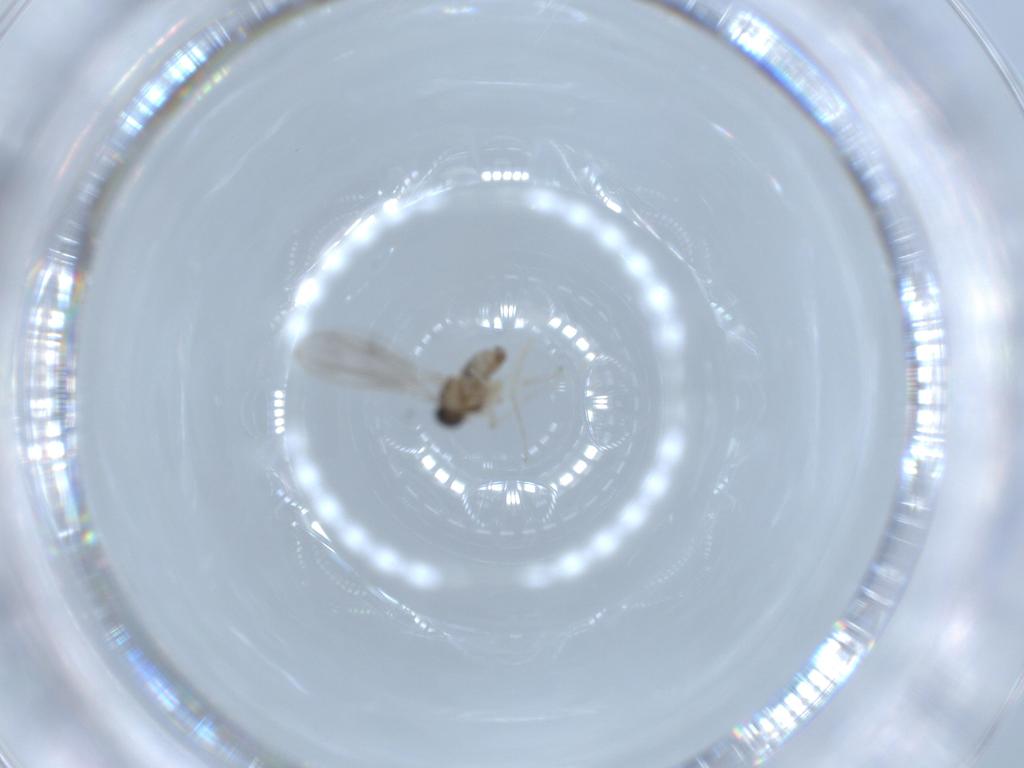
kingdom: Animalia
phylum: Arthropoda
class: Insecta
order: Diptera
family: Cecidomyiidae
